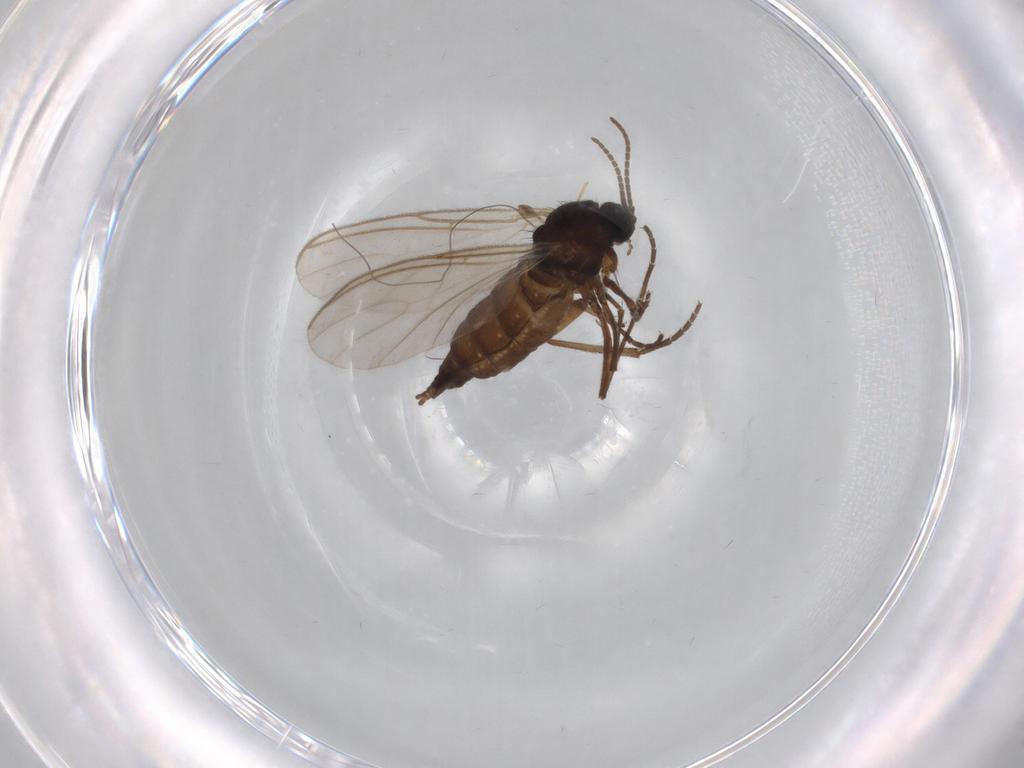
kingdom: Animalia
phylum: Arthropoda
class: Insecta
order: Diptera
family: Sciaridae
